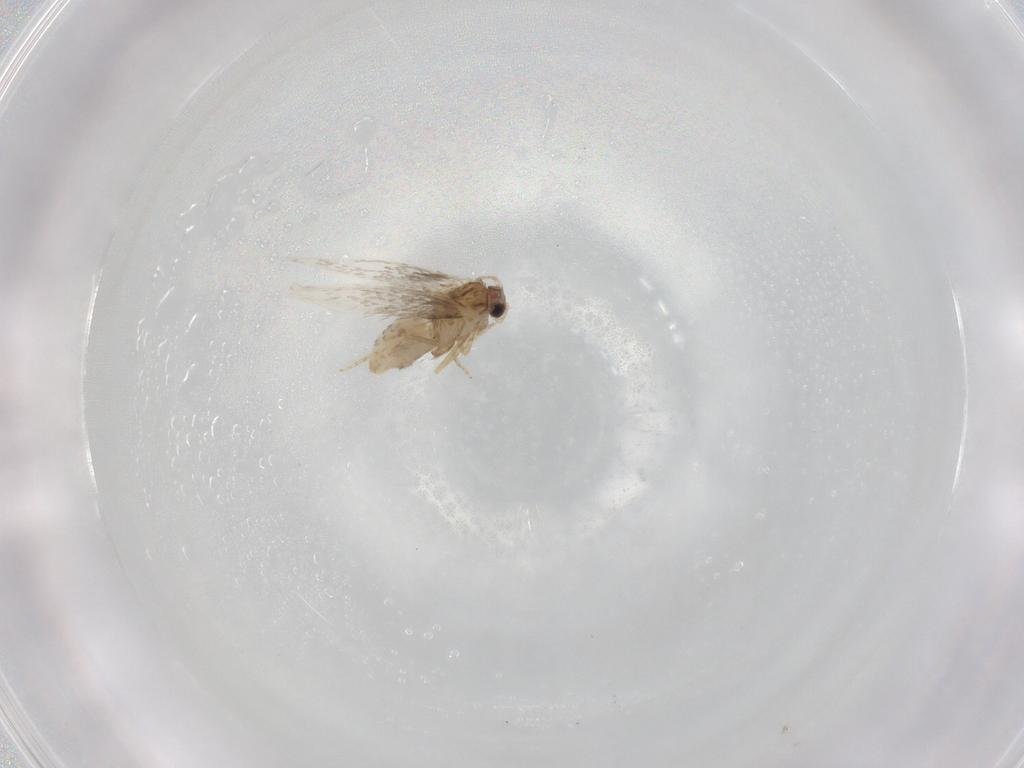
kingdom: Animalia
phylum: Arthropoda
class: Insecta
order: Lepidoptera
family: Nepticulidae
